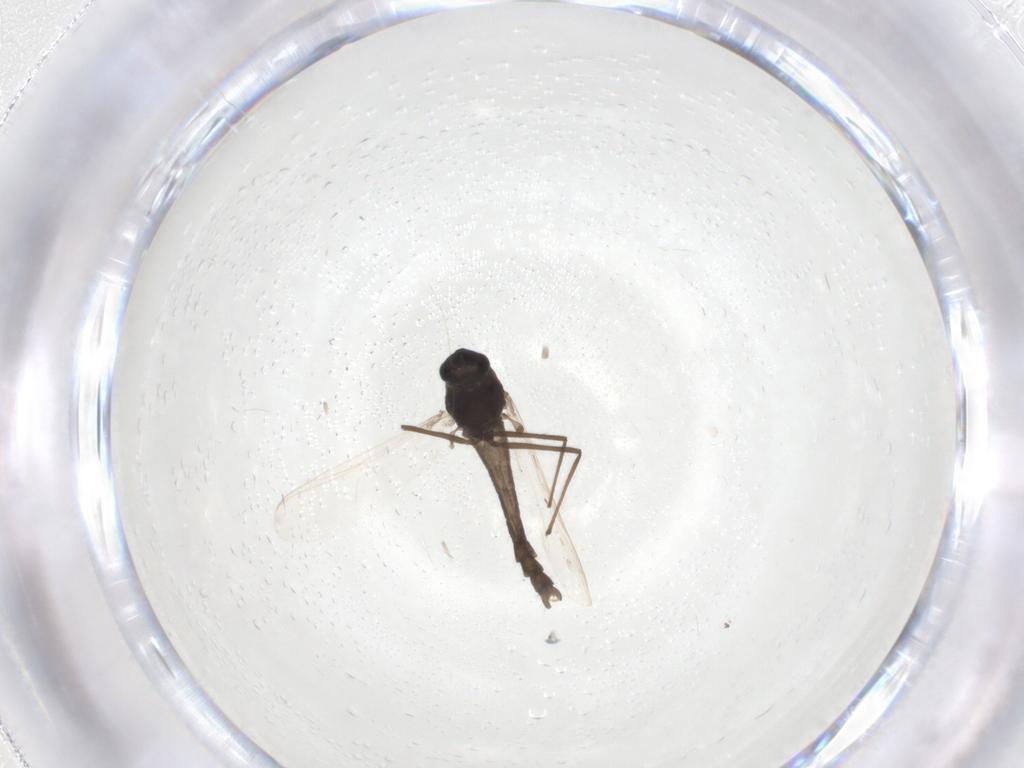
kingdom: Animalia
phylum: Arthropoda
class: Insecta
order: Diptera
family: Chironomidae
